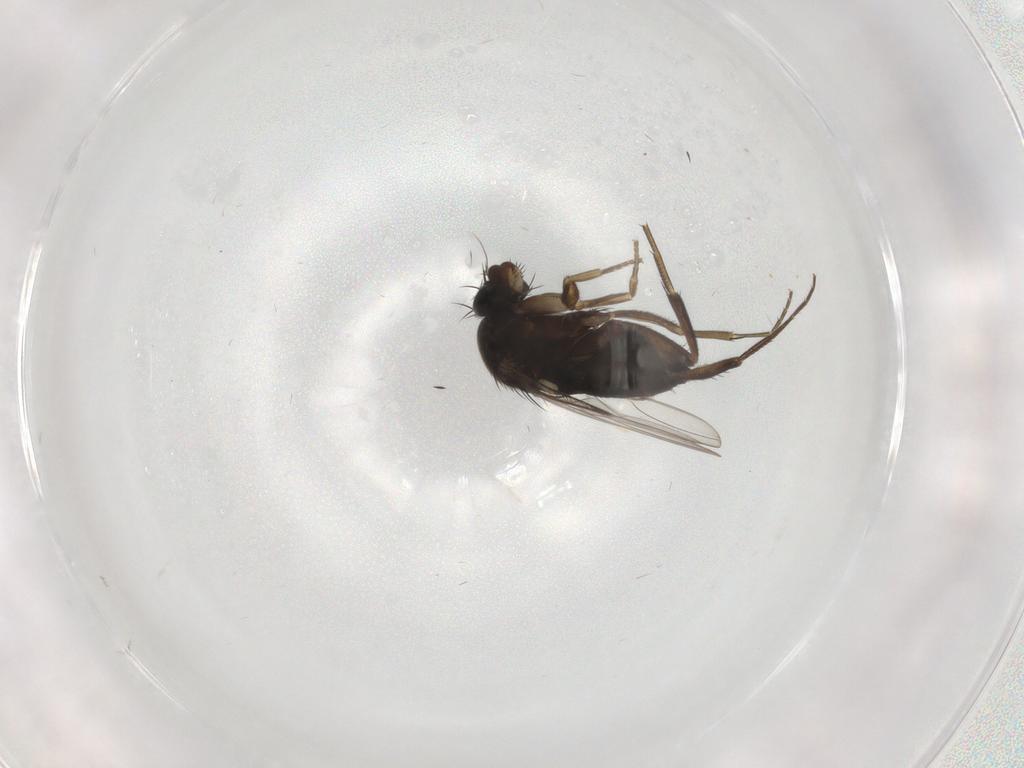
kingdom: Animalia
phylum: Arthropoda
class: Insecta
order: Diptera
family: Phoridae
